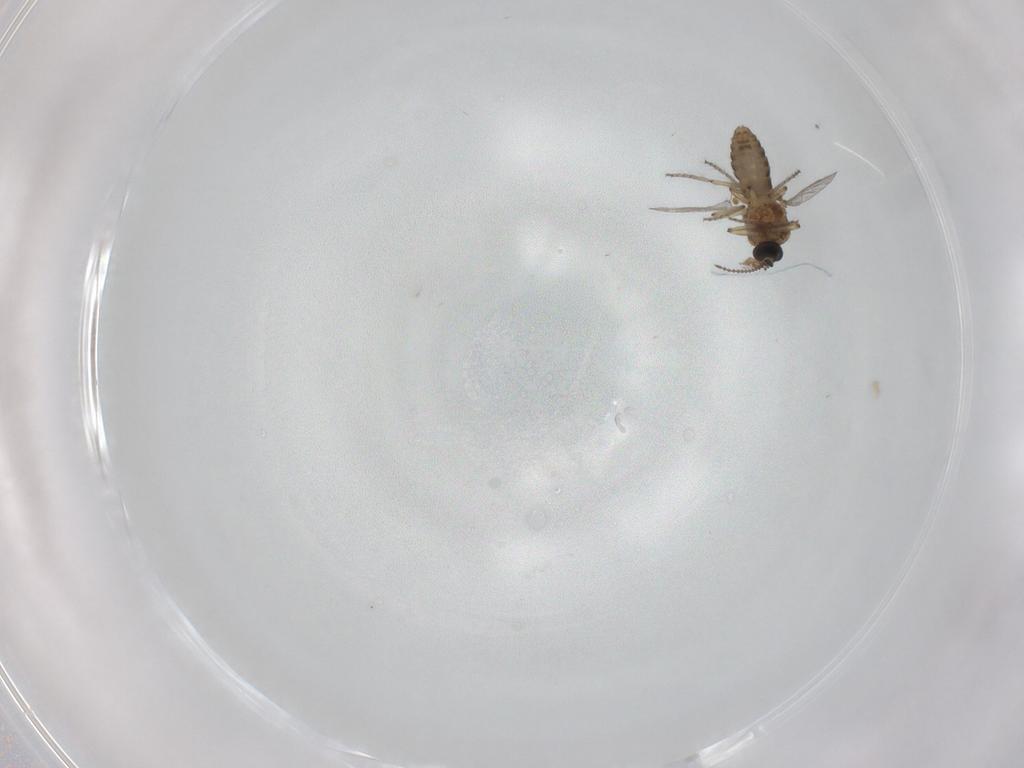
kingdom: Animalia
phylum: Arthropoda
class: Insecta
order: Diptera
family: Ceratopogonidae
